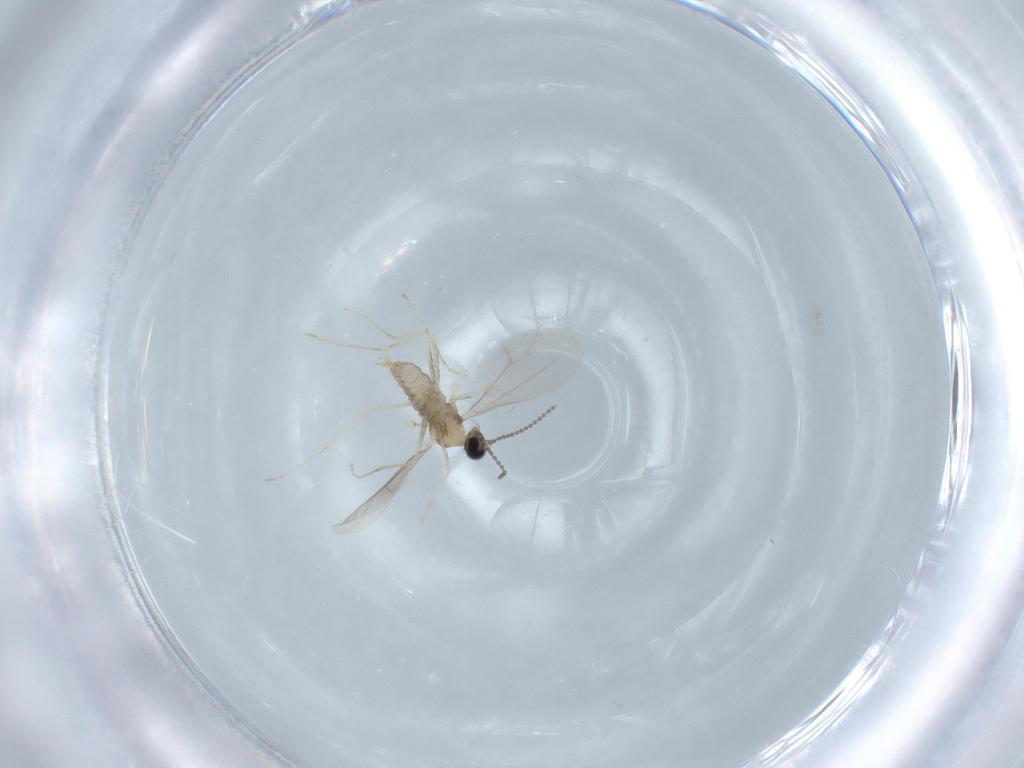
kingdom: Animalia
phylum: Arthropoda
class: Insecta
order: Diptera
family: Cecidomyiidae
